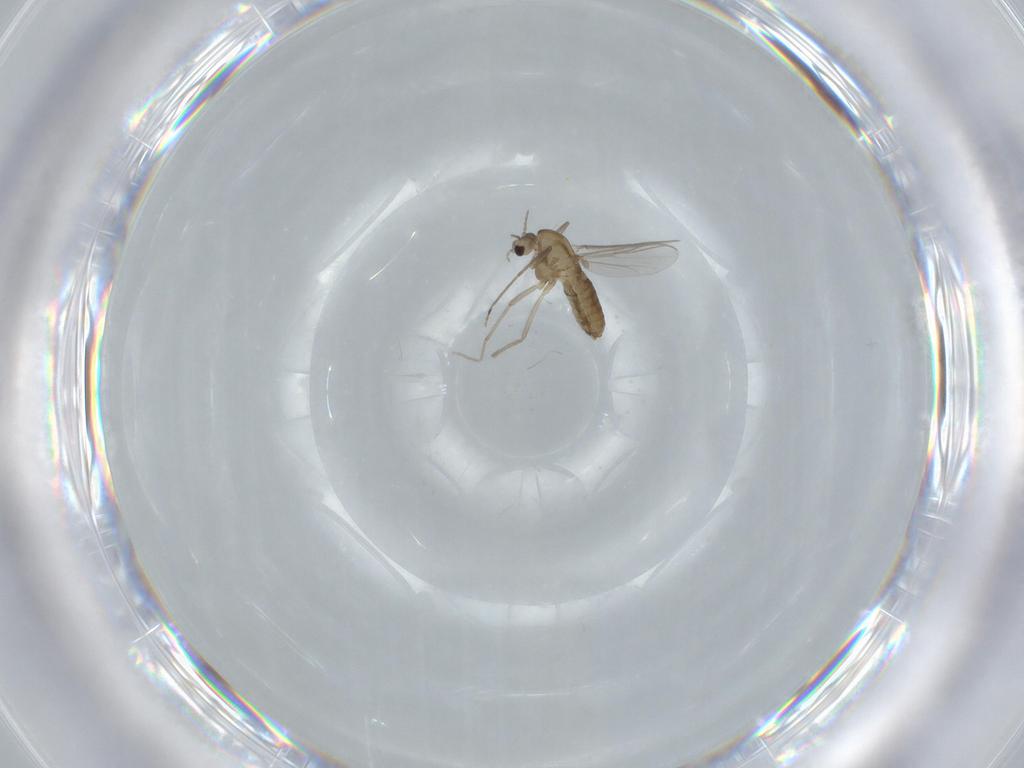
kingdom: Animalia
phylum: Arthropoda
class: Insecta
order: Diptera
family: Chironomidae
